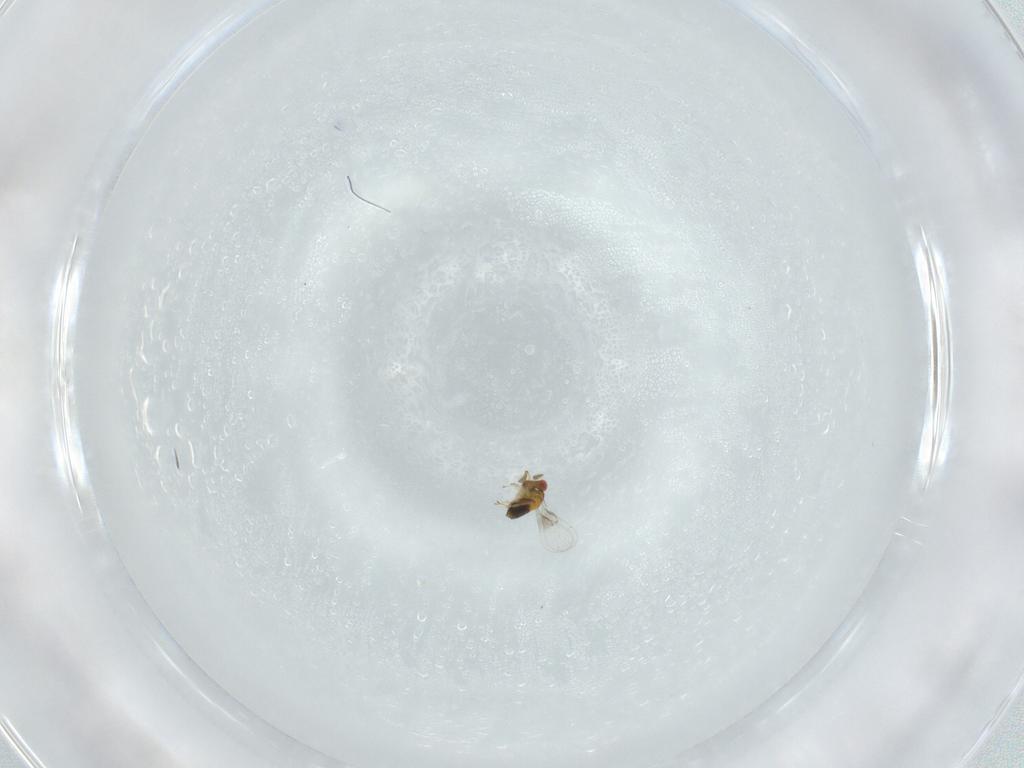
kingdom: Animalia
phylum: Arthropoda
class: Insecta
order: Hymenoptera
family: Trichogrammatidae
